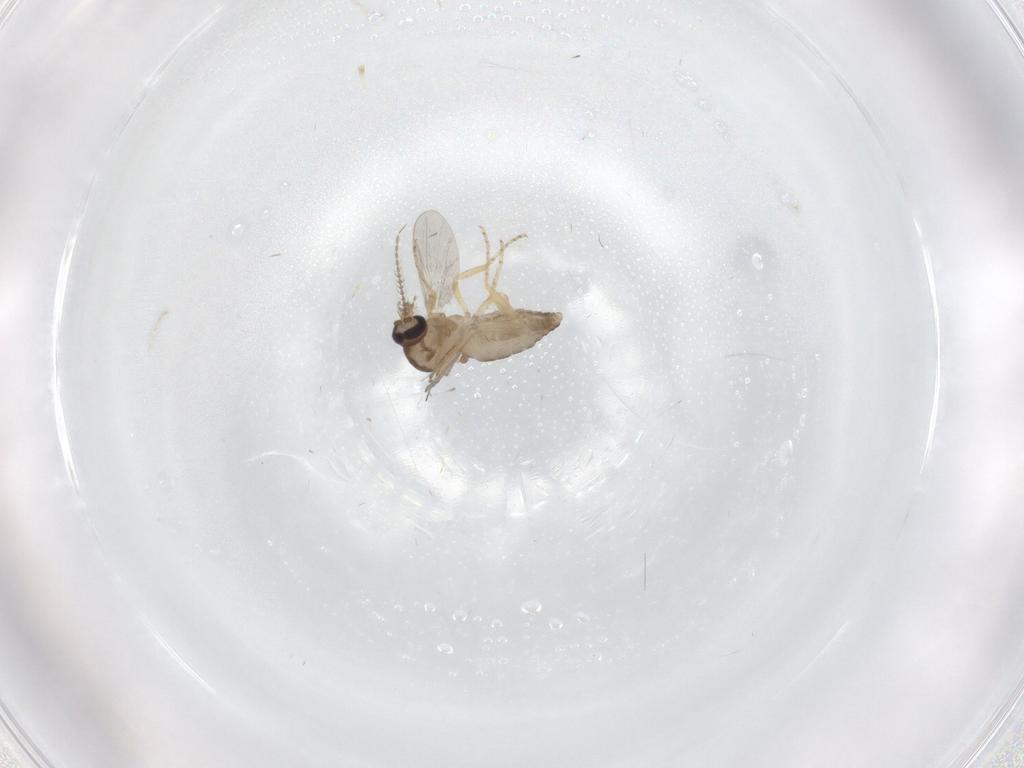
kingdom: Animalia
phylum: Arthropoda
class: Insecta
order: Diptera
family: Ceratopogonidae
